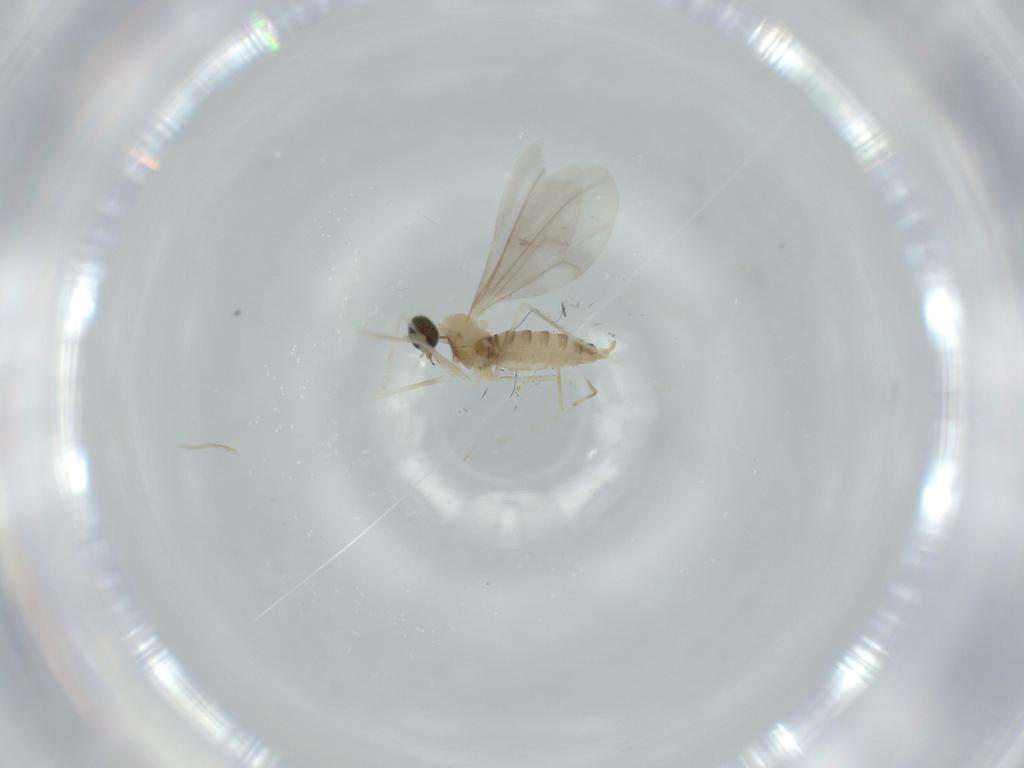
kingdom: Animalia
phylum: Arthropoda
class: Insecta
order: Diptera
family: Cecidomyiidae
